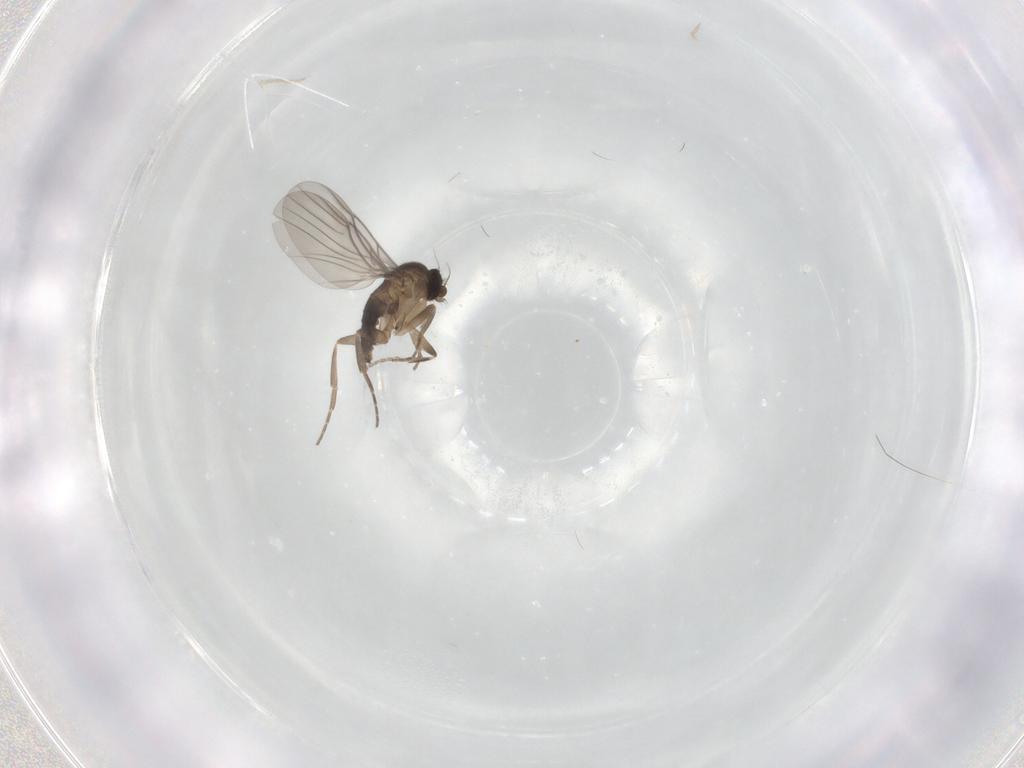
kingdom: Animalia
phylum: Arthropoda
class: Insecta
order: Diptera
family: Phoridae
